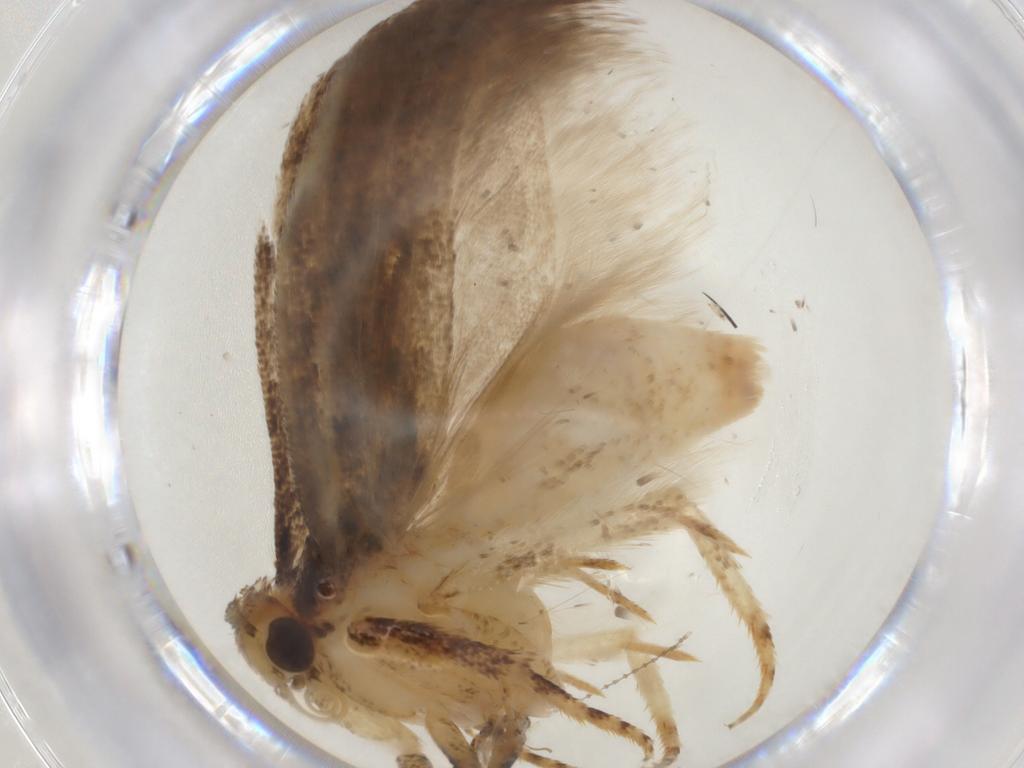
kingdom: Animalia
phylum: Arthropoda
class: Insecta
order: Lepidoptera
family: Gelechiidae
